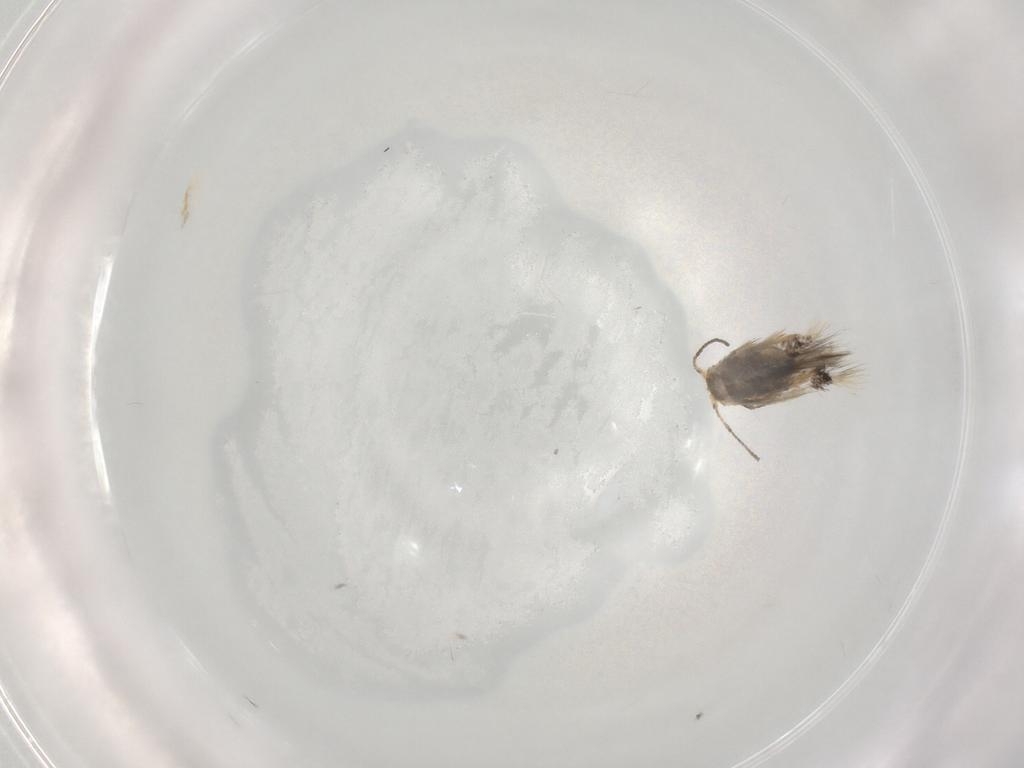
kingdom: Animalia
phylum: Arthropoda
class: Insecta
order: Lepidoptera
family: Nepticulidae
